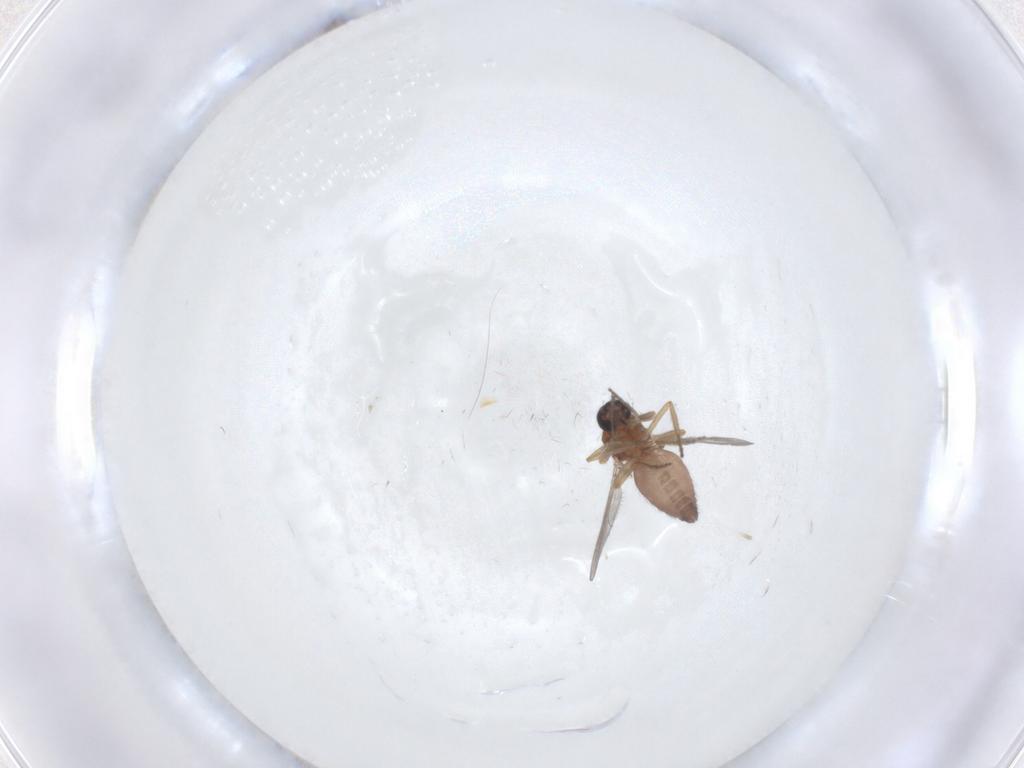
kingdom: Animalia
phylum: Arthropoda
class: Insecta
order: Diptera
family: Ceratopogonidae
